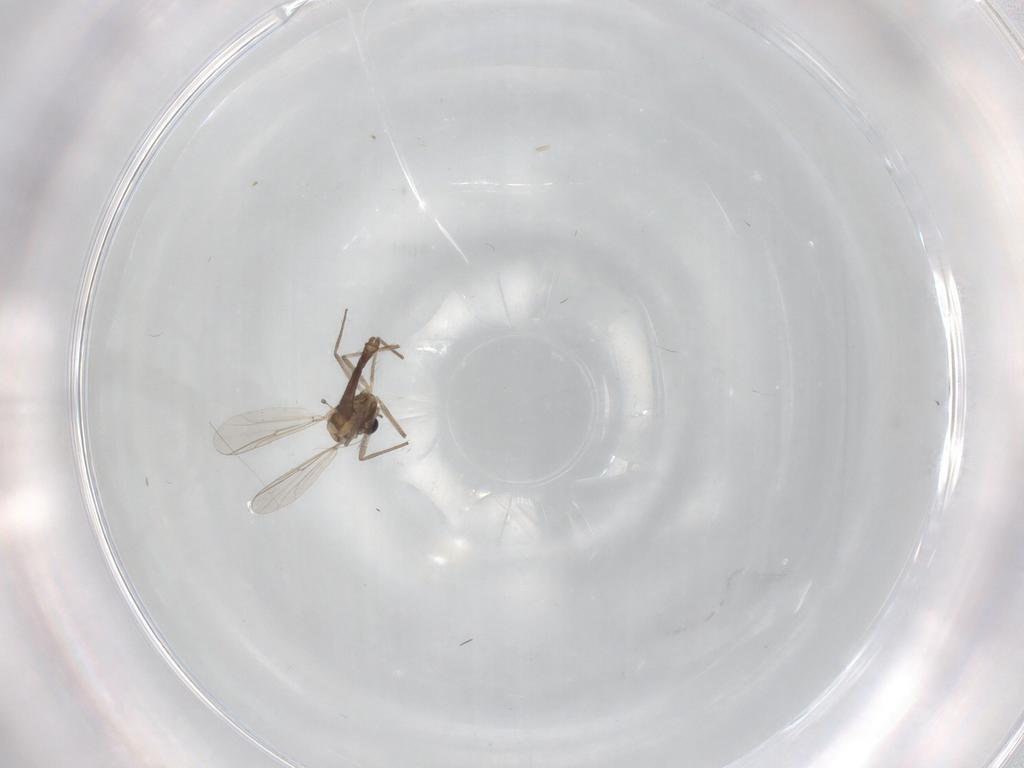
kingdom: Animalia
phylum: Arthropoda
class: Insecta
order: Diptera
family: Chironomidae
